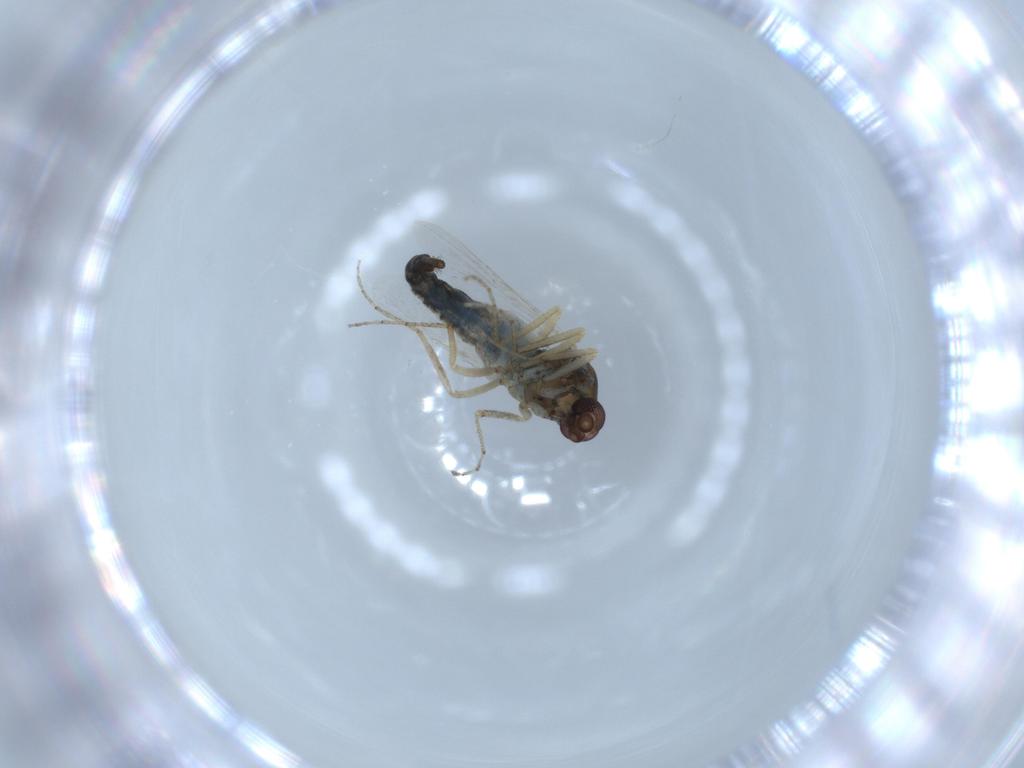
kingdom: Animalia
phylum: Arthropoda
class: Insecta
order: Diptera
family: Ceratopogonidae
